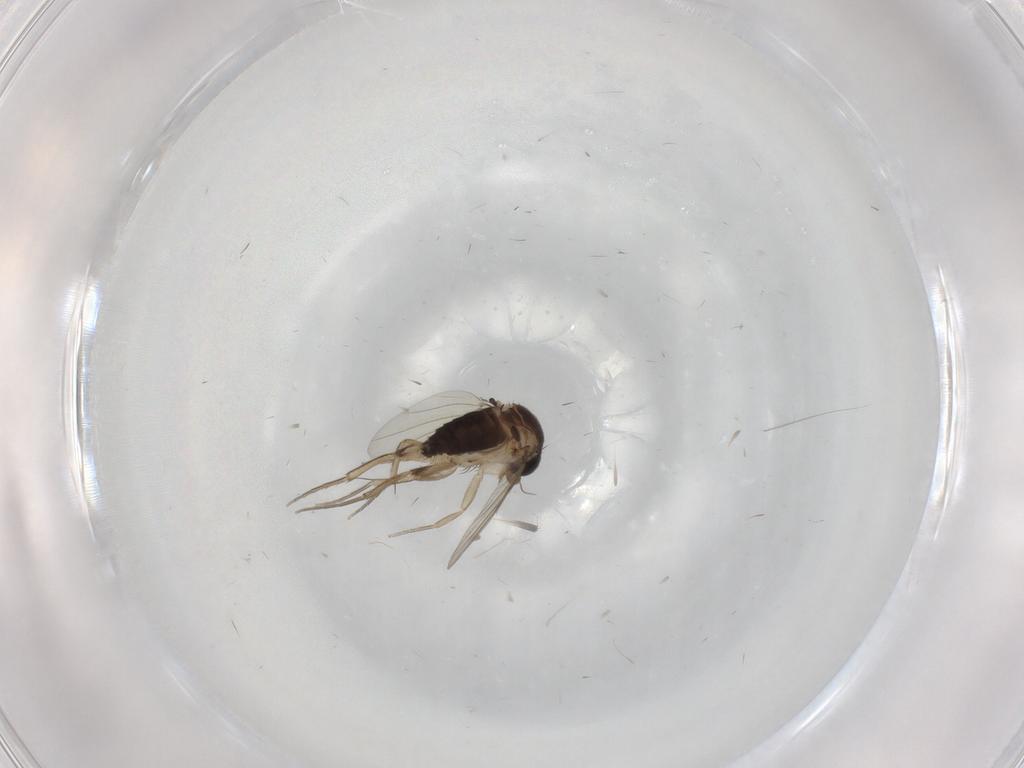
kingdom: Animalia
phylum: Arthropoda
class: Insecta
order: Diptera
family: Phoridae
